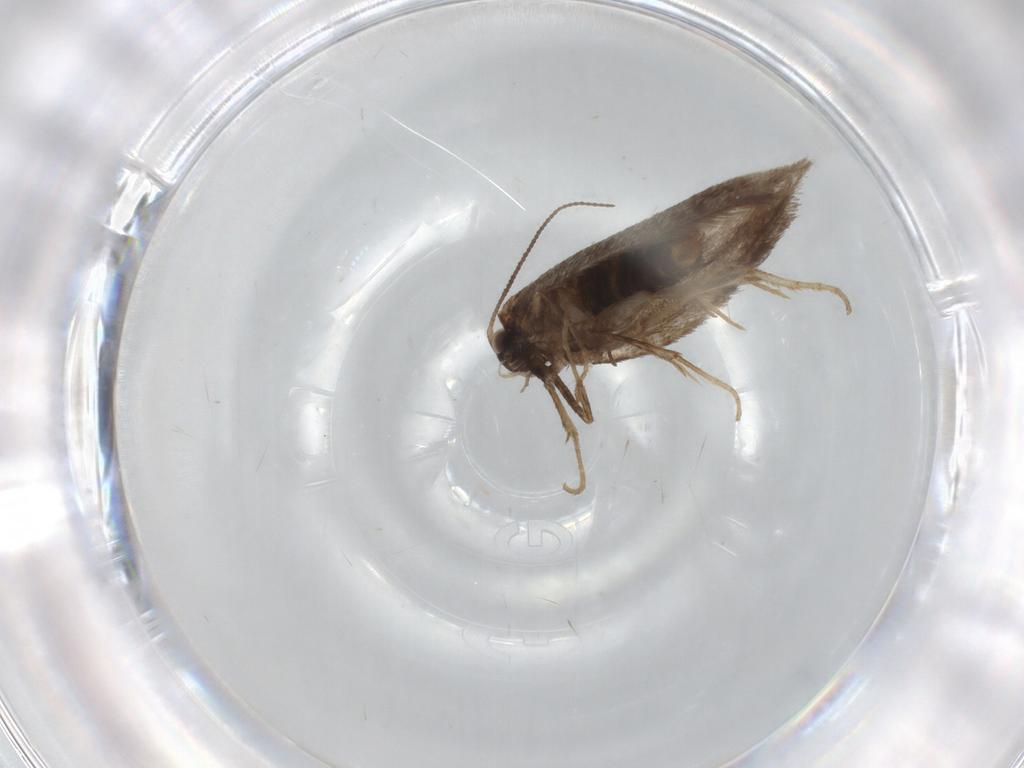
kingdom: Animalia
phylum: Arthropoda
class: Insecta
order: Lepidoptera
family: Nepticulidae
